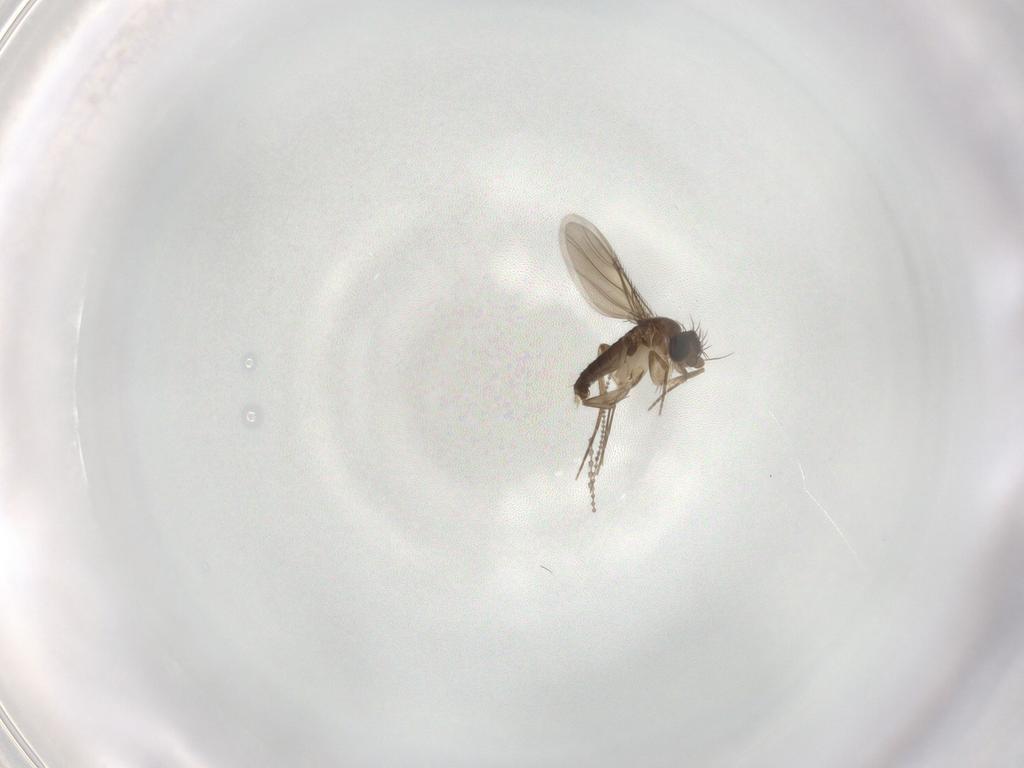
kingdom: Animalia
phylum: Arthropoda
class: Insecta
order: Diptera
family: Phoridae
